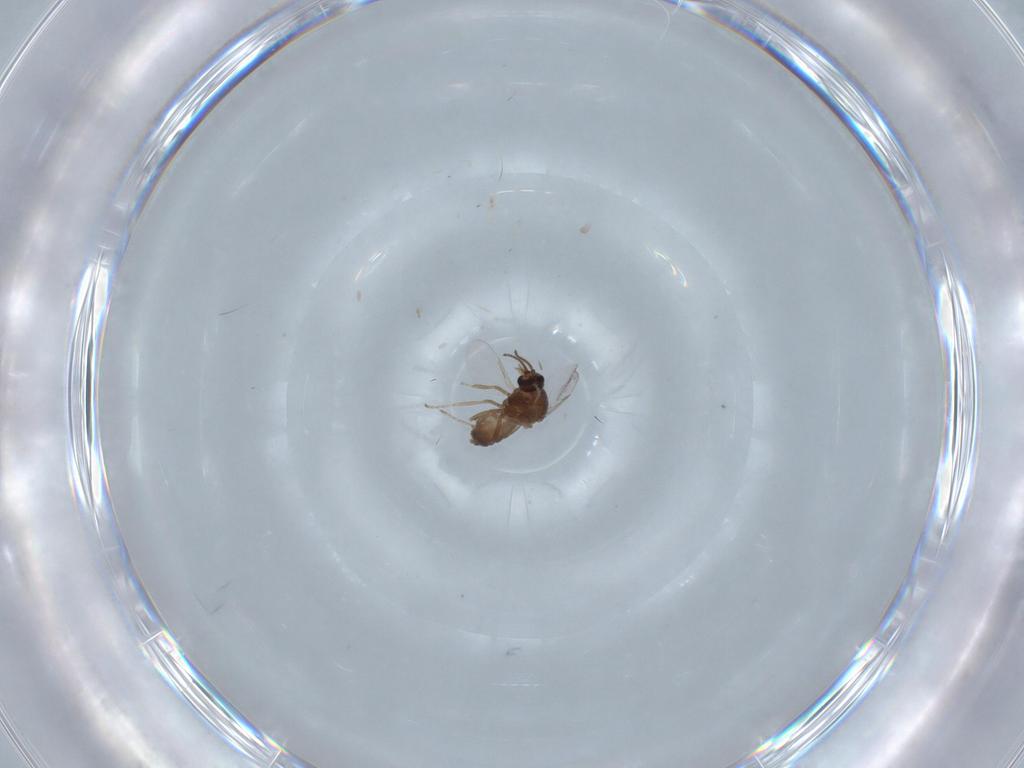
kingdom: Animalia
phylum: Arthropoda
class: Insecta
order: Diptera
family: Ceratopogonidae
